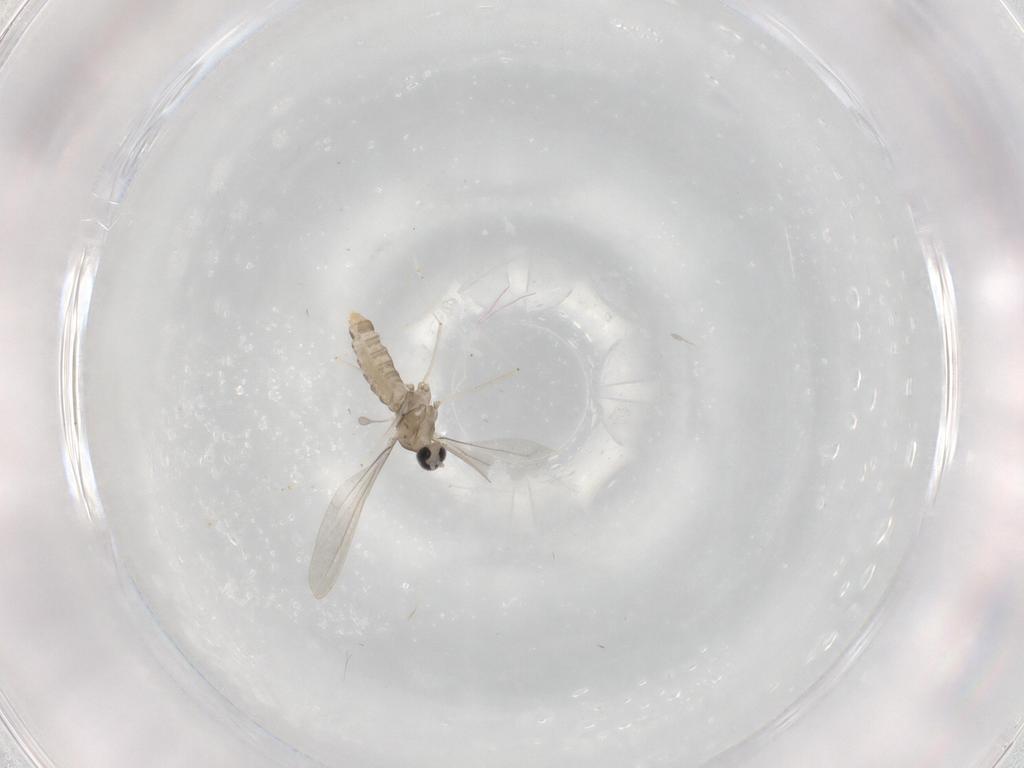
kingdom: Animalia
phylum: Arthropoda
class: Insecta
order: Diptera
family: Cecidomyiidae
